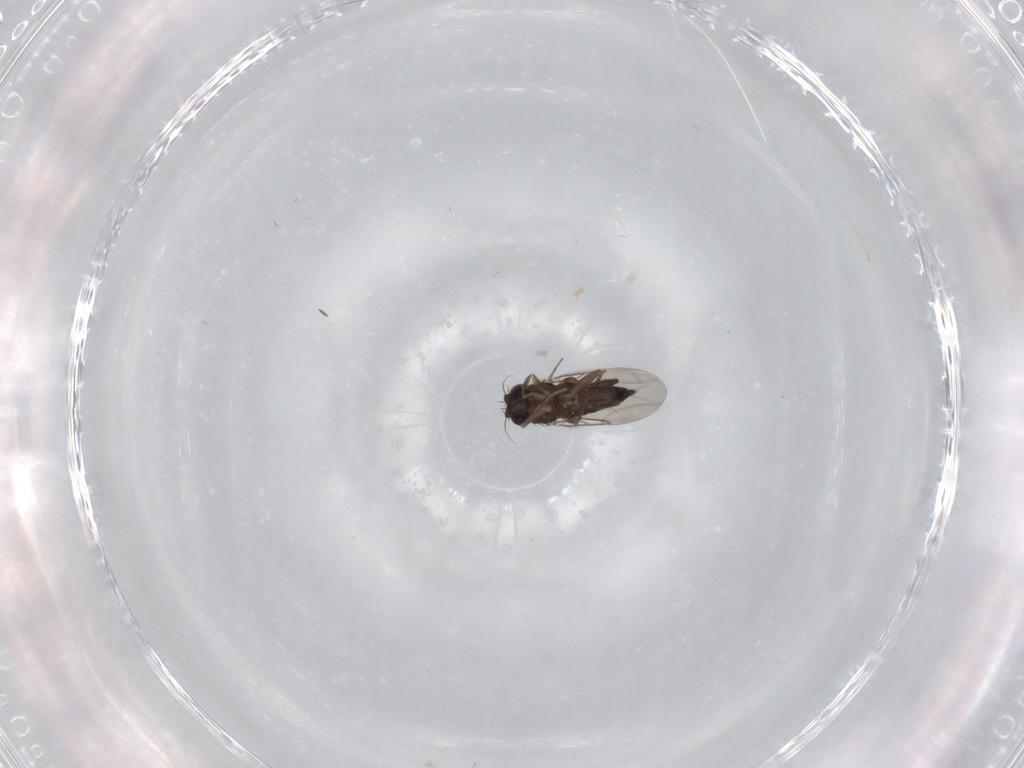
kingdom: Animalia
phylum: Arthropoda
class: Insecta
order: Diptera
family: Phoridae
